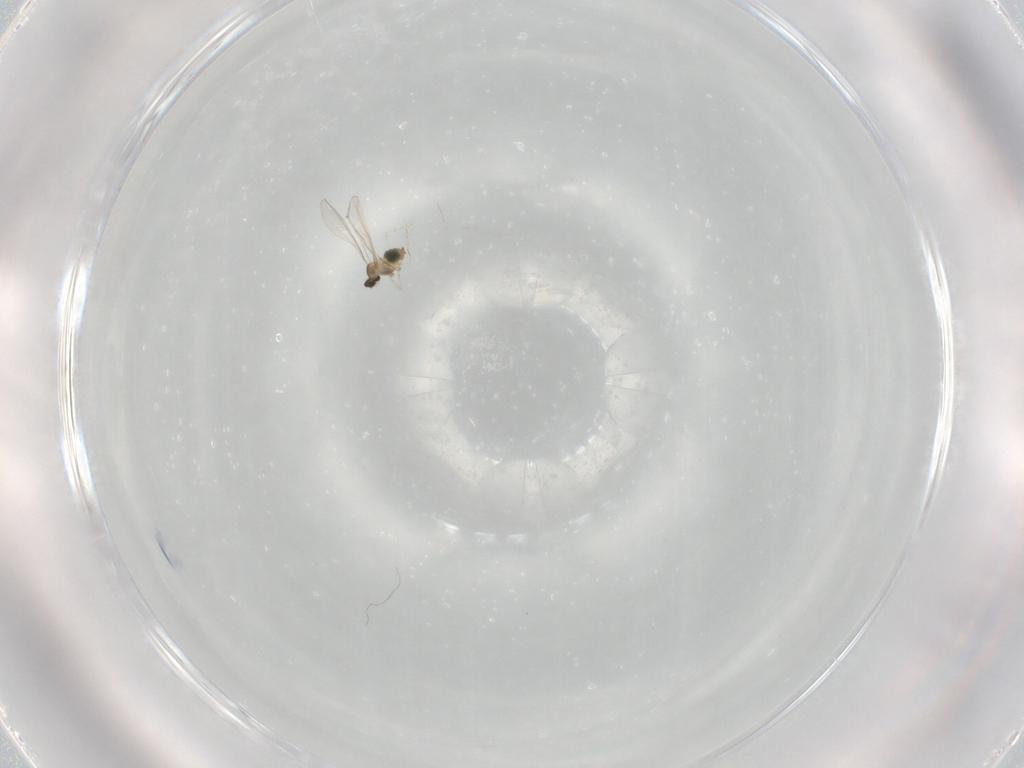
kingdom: Animalia
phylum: Arthropoda
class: Insecta
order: Diptera
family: Cecidomyiidae
